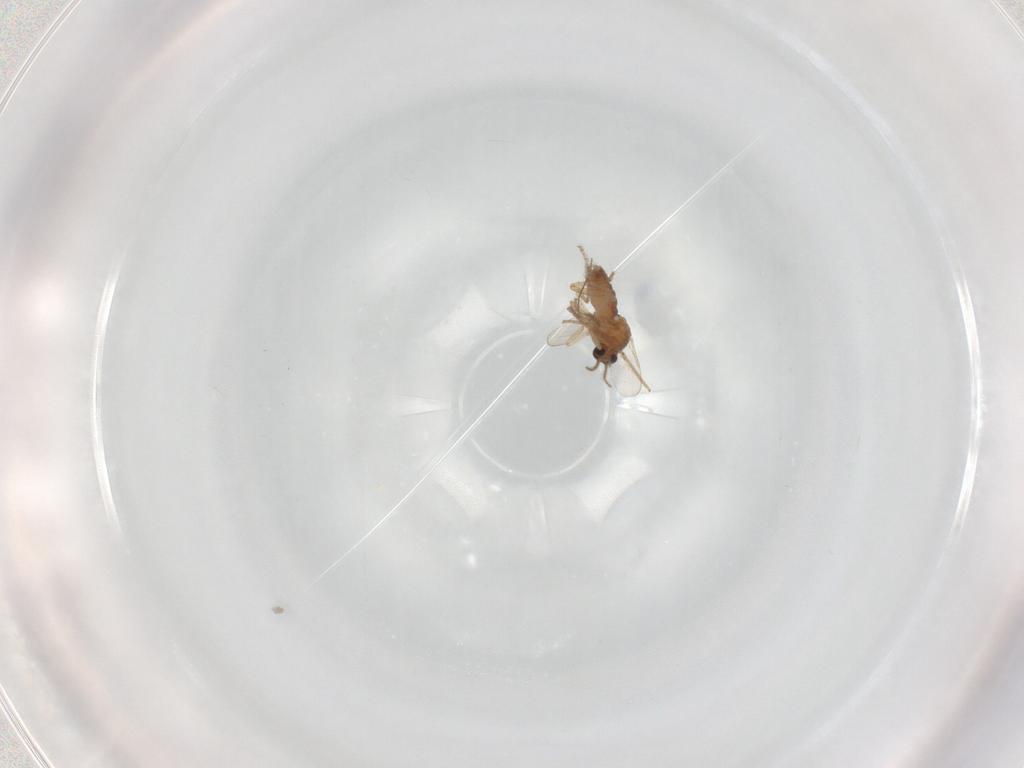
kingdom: Animalia
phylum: Arthropoda
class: Insecta
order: Diptera
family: Ceratopogonidae
